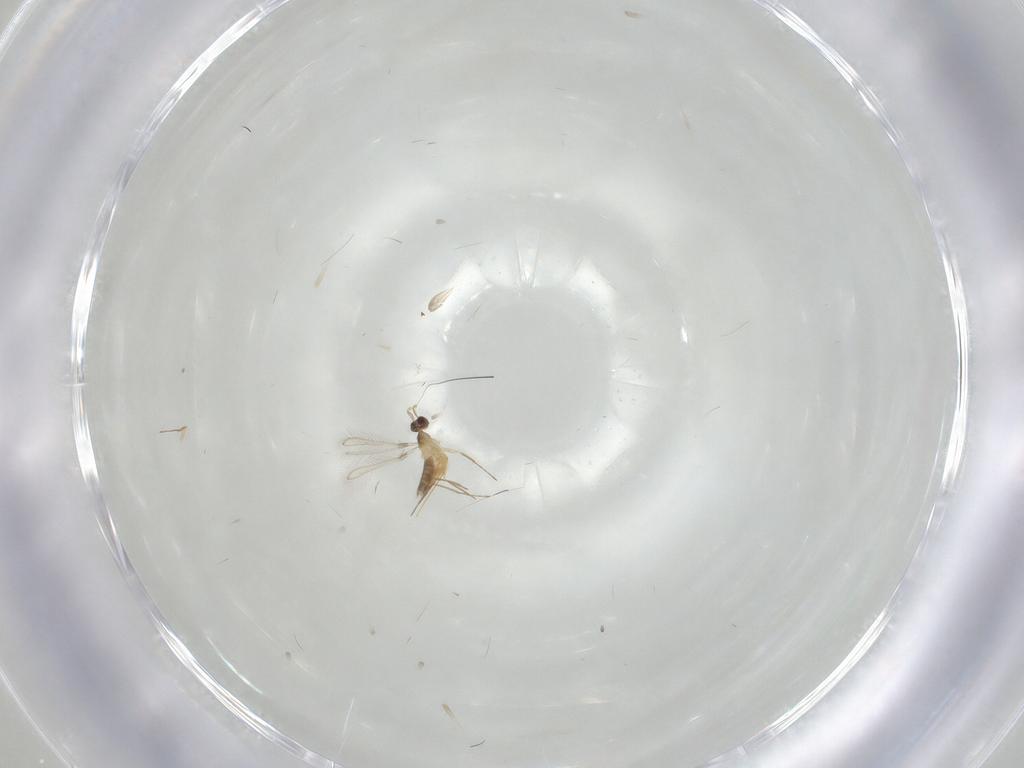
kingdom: Animalia
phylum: Arthropoda
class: Insecta
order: Hymenoptera
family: Mymaridae
